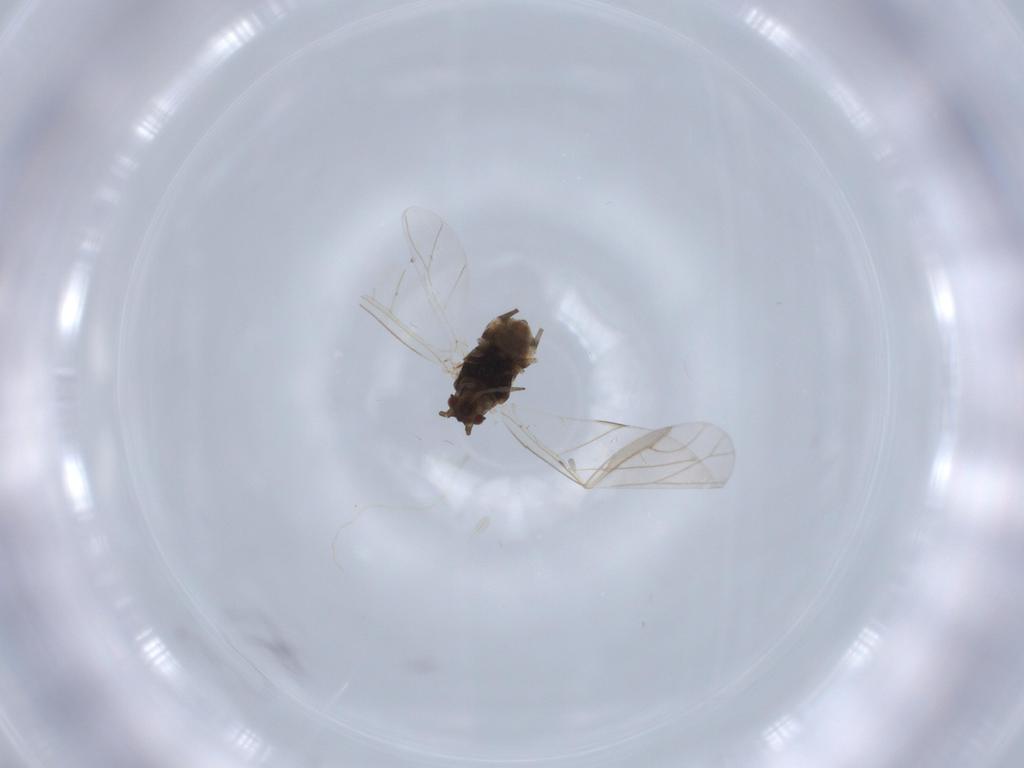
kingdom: Animalia
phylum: Arthropoda
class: Insecta
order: Hemiptera
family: Aphididae
